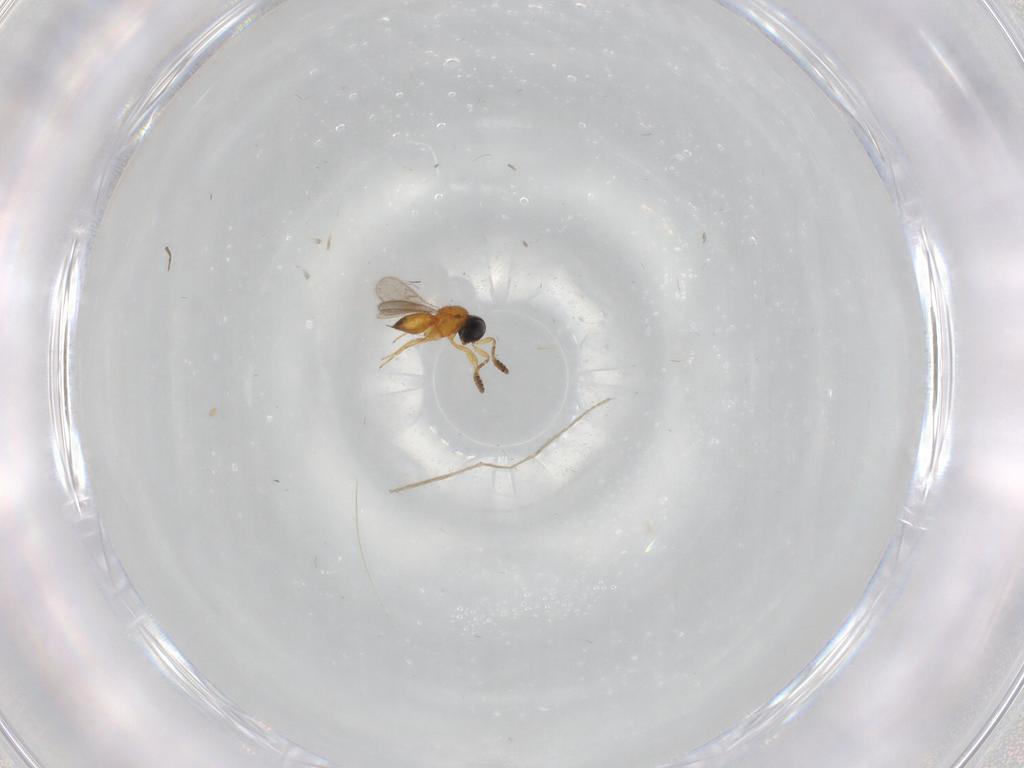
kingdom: Animalia
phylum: Arthropoda
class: Insecta
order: Hymenoptera
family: Scelionidae
